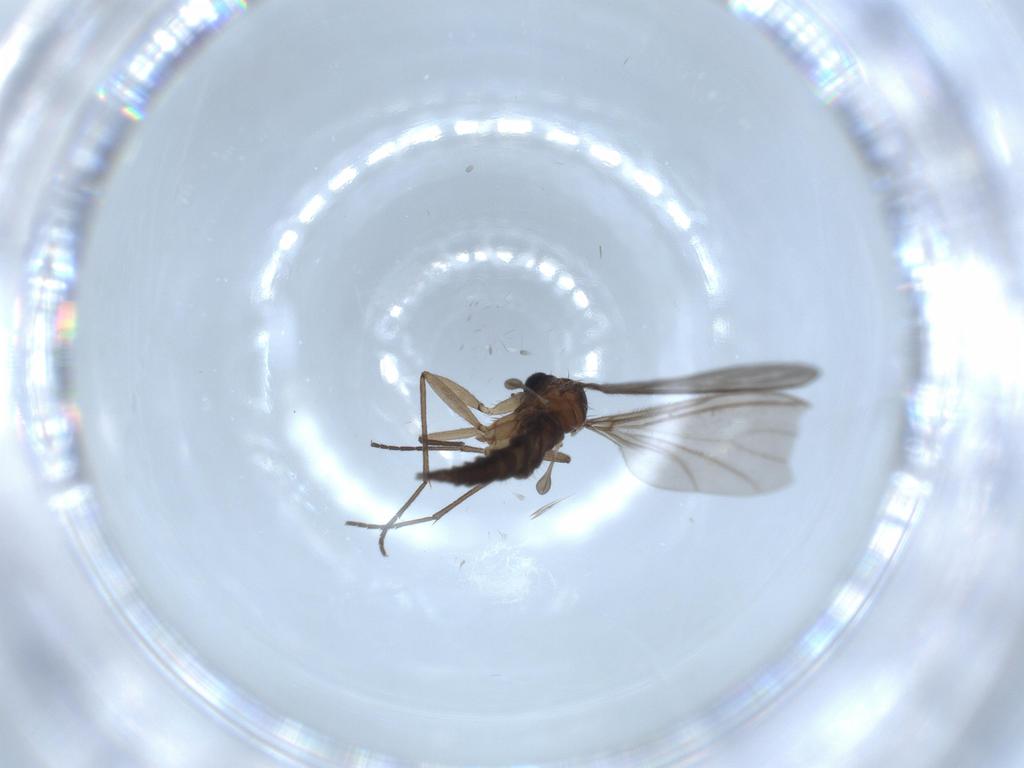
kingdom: Animalia
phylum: Arthropoda
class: Insecta
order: Diptera
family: Sciaridae
